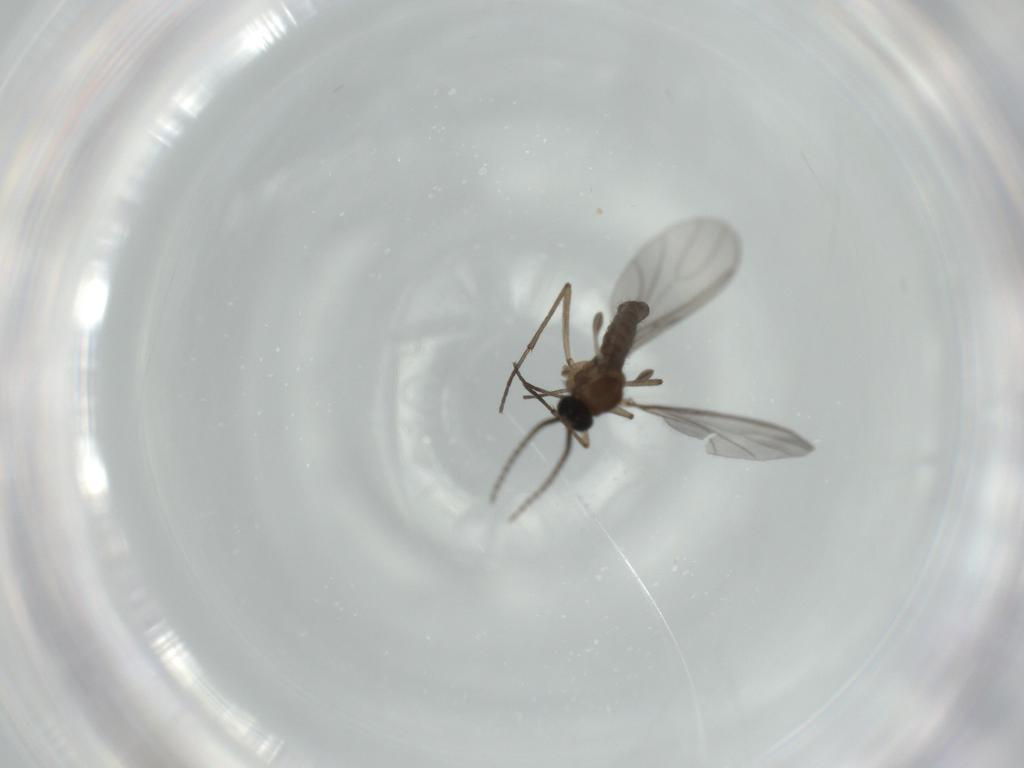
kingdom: Animalia
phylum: Arthropoda
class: Insecta
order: Diptera
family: Sciaridae
